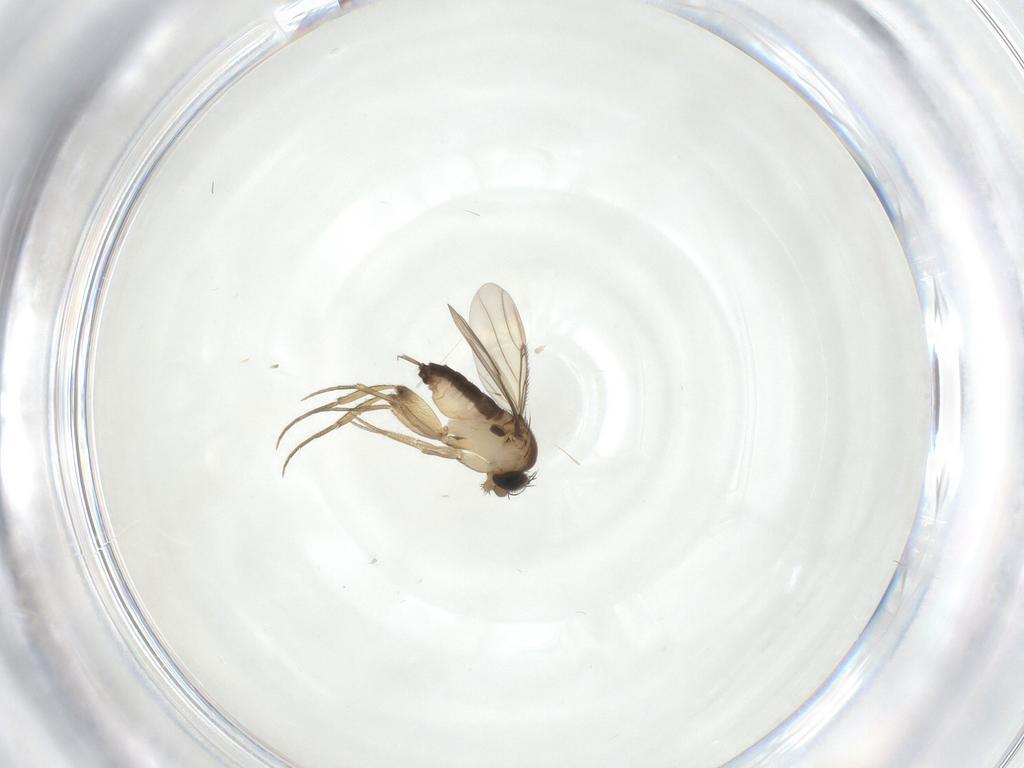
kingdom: Animalia
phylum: Arthropoda
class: Insecta
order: Diptera
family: Phoridae
